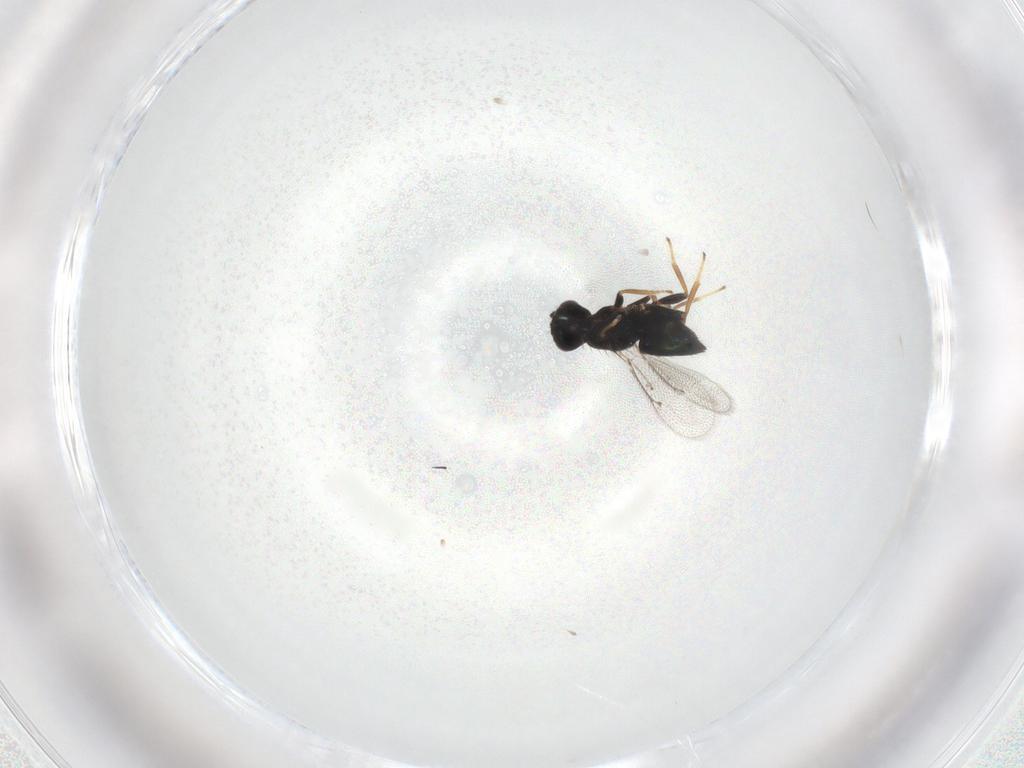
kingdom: Animalia
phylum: Arthropoda
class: Insecta
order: Hymenoptera
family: Eulophidae
